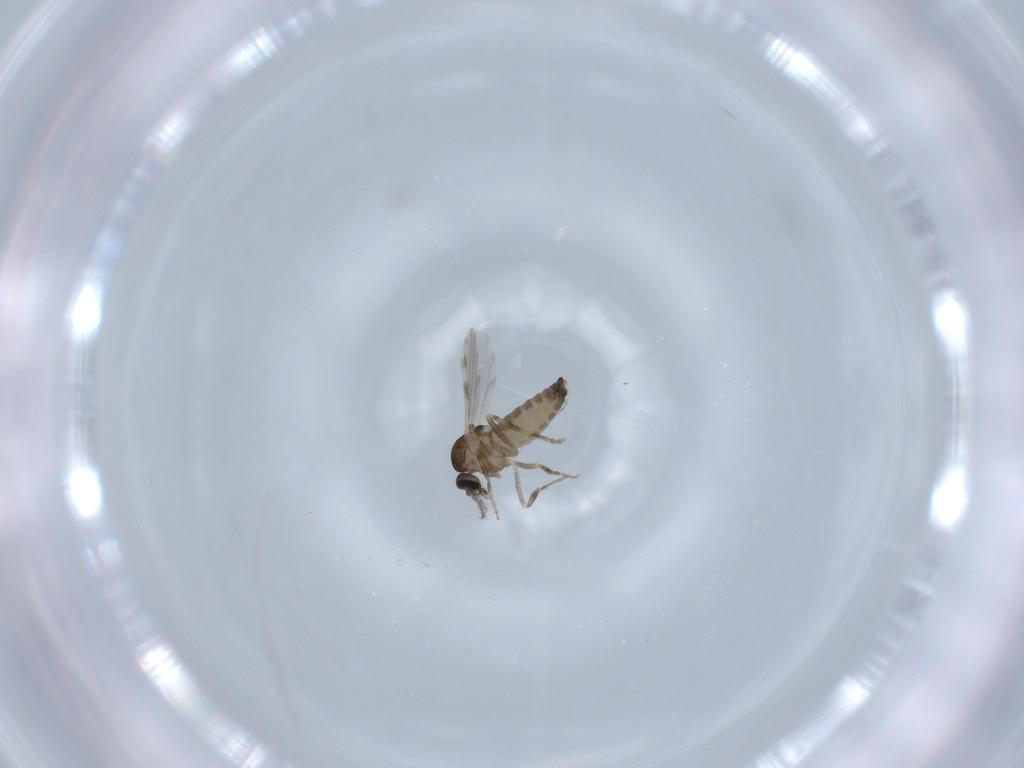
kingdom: Animalia
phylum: Arthropoda
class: Insecta
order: Diptera
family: Ceratopogonidae
